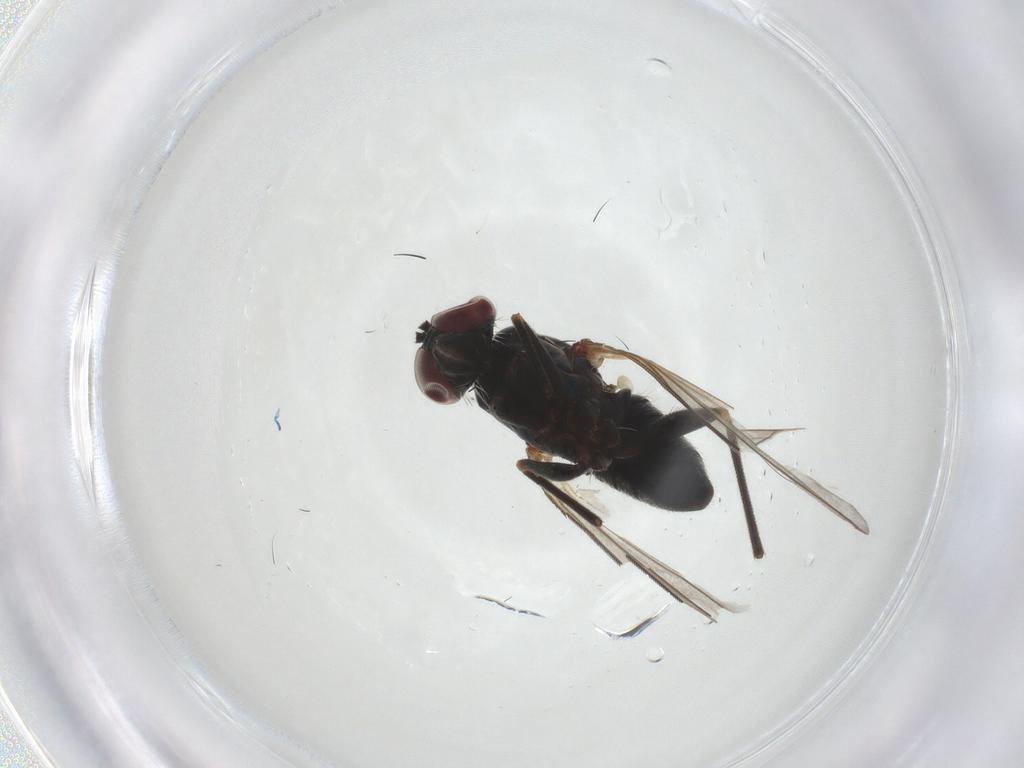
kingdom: Animalia
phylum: Arthropoda
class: Insecta
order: Diptera
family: Dolichopodidae
